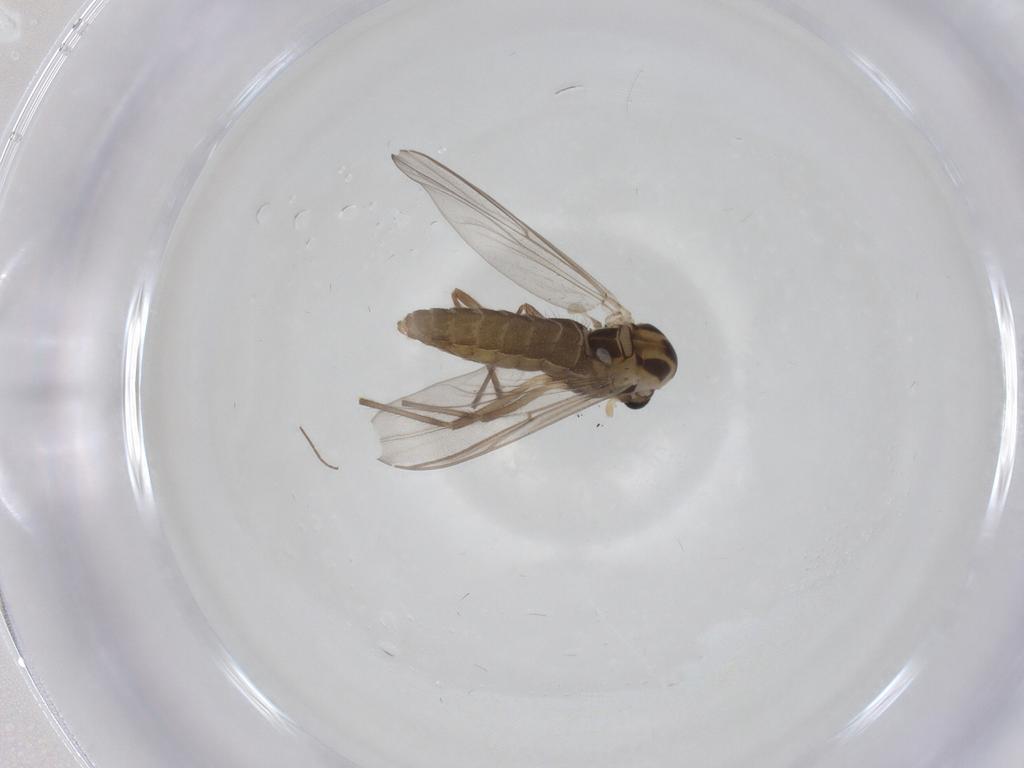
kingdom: Animalia
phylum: Arthropoda
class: Insecta
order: Diptera
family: Chironomidae
